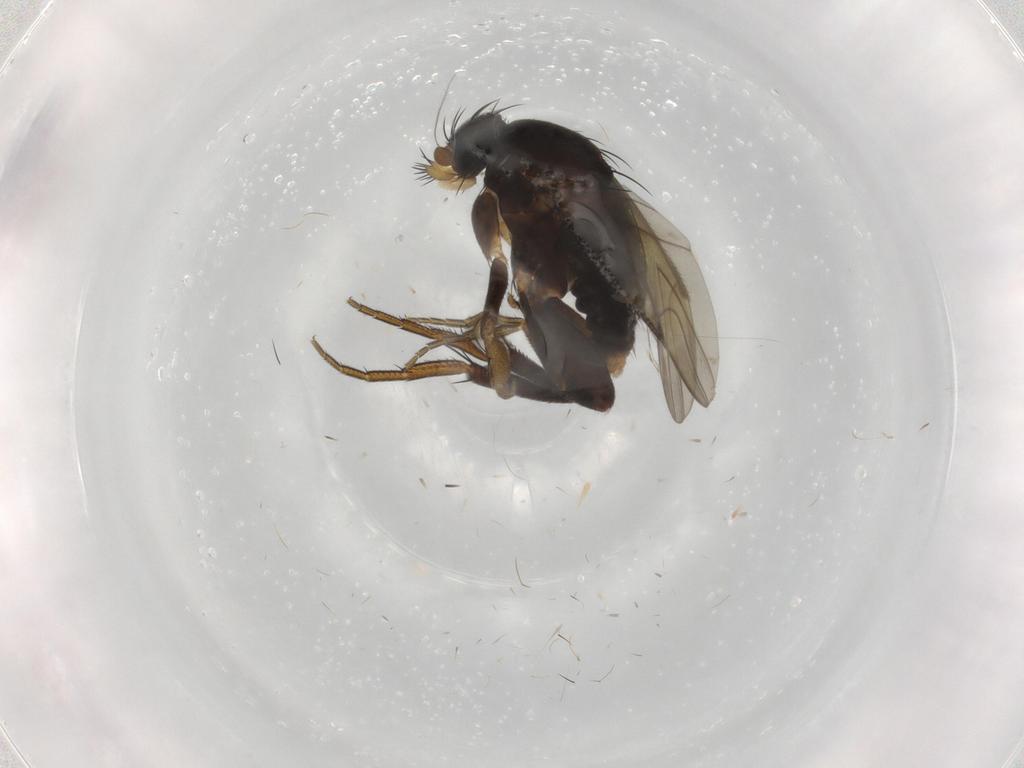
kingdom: Animalia
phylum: Arthropoda
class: Insecta
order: Diptera
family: Phoridae
